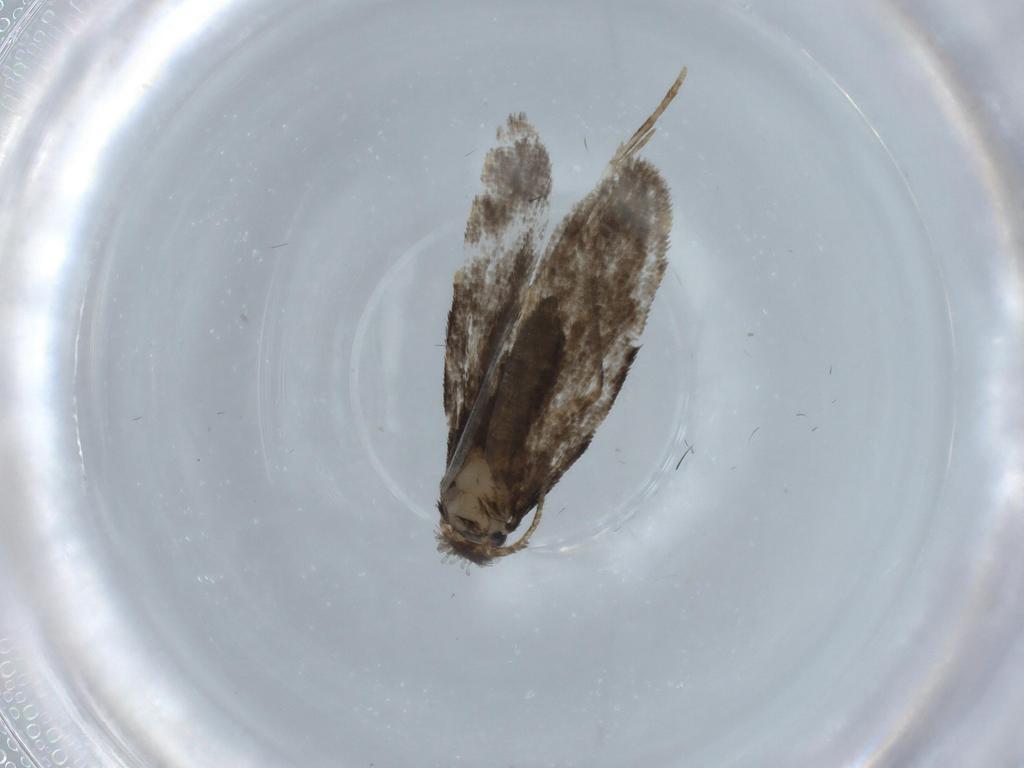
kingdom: Animalia
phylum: Arthropoda
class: Insecta
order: Lepidoptera
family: Psychidae
